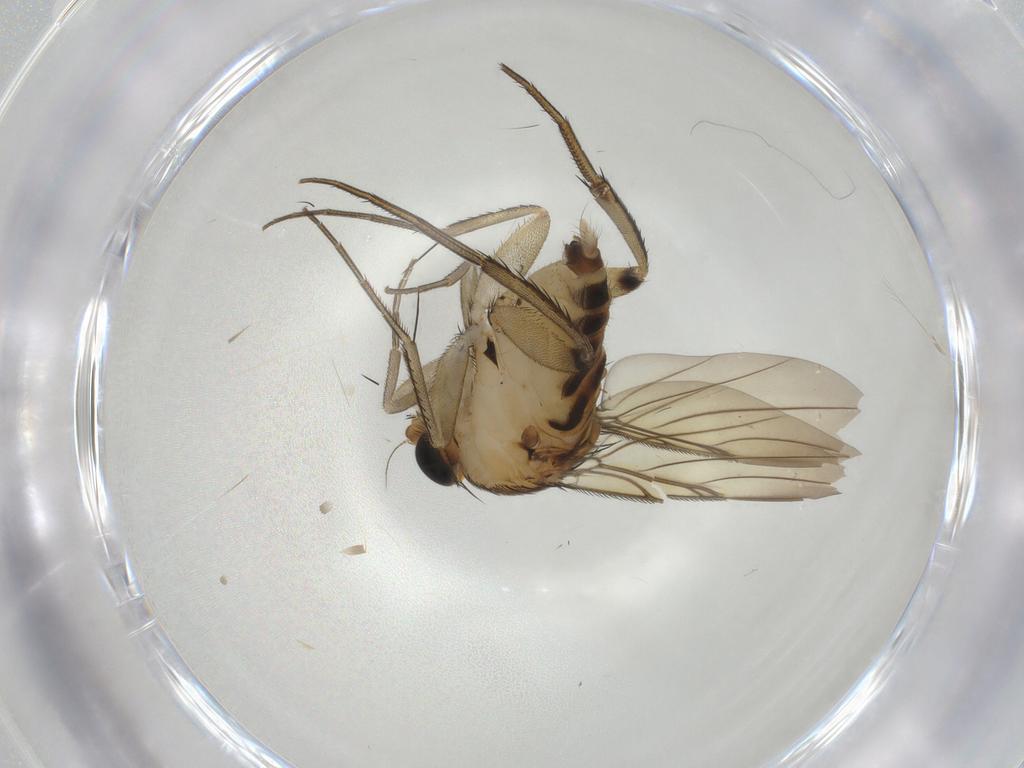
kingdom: Animalia
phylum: Arthropoda
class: Insecta
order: Diptera
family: Phoridae
